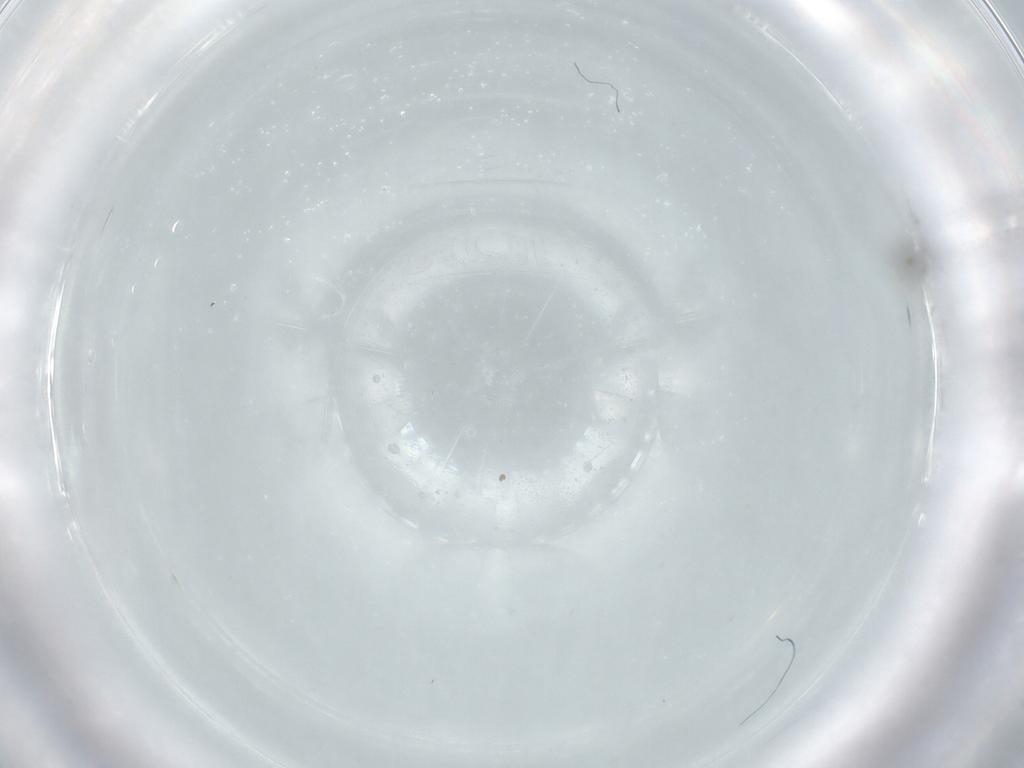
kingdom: Animalia
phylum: Arthropoda
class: Insecta
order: Diptera
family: Cecidomyiidae
